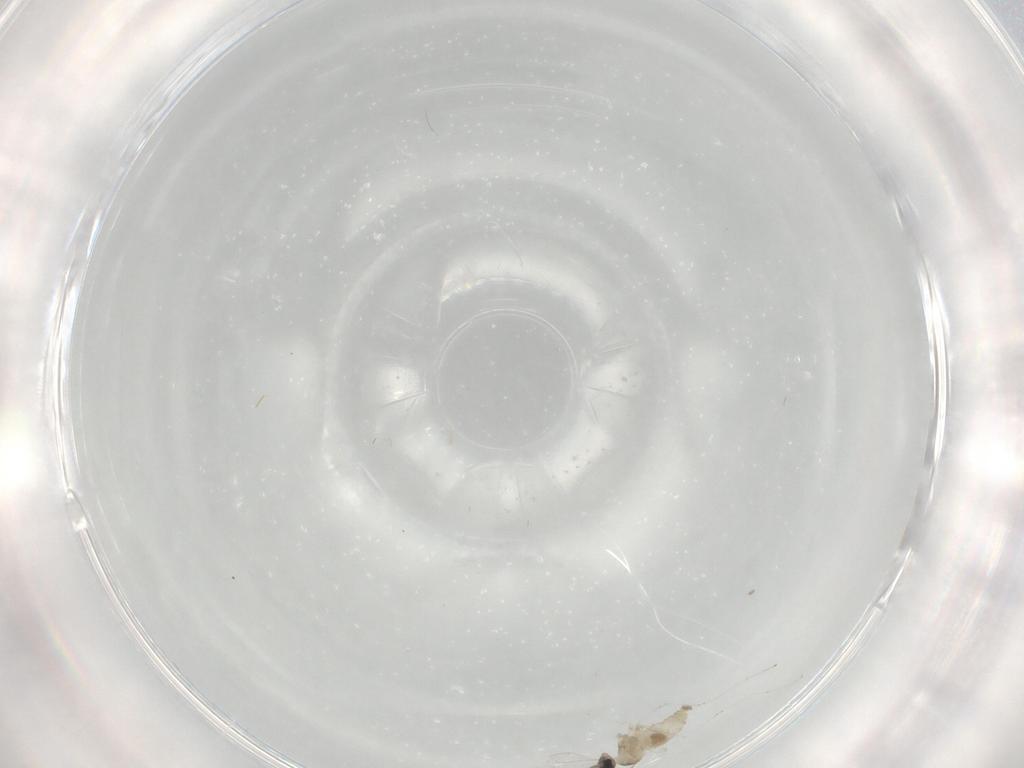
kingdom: Animalia
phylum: Arthropoda
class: Insecta
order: Diptera
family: Cecidomyiidae
